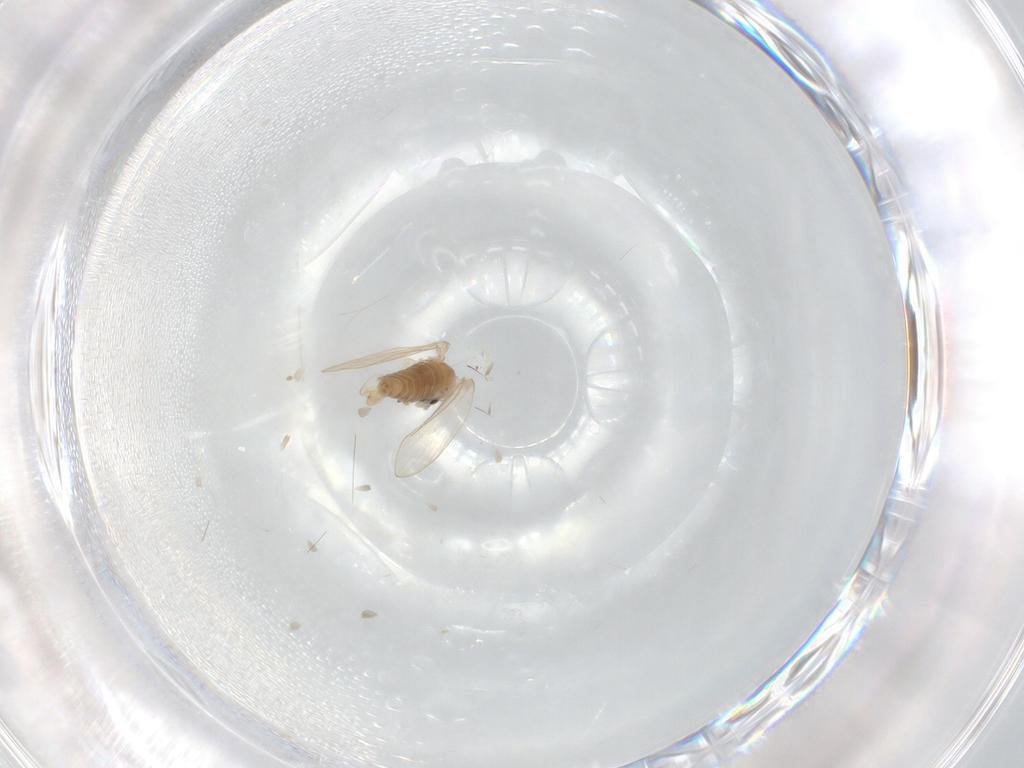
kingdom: Animalia
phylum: Arthropoda
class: Insecta
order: Diptera
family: Psychodidae
